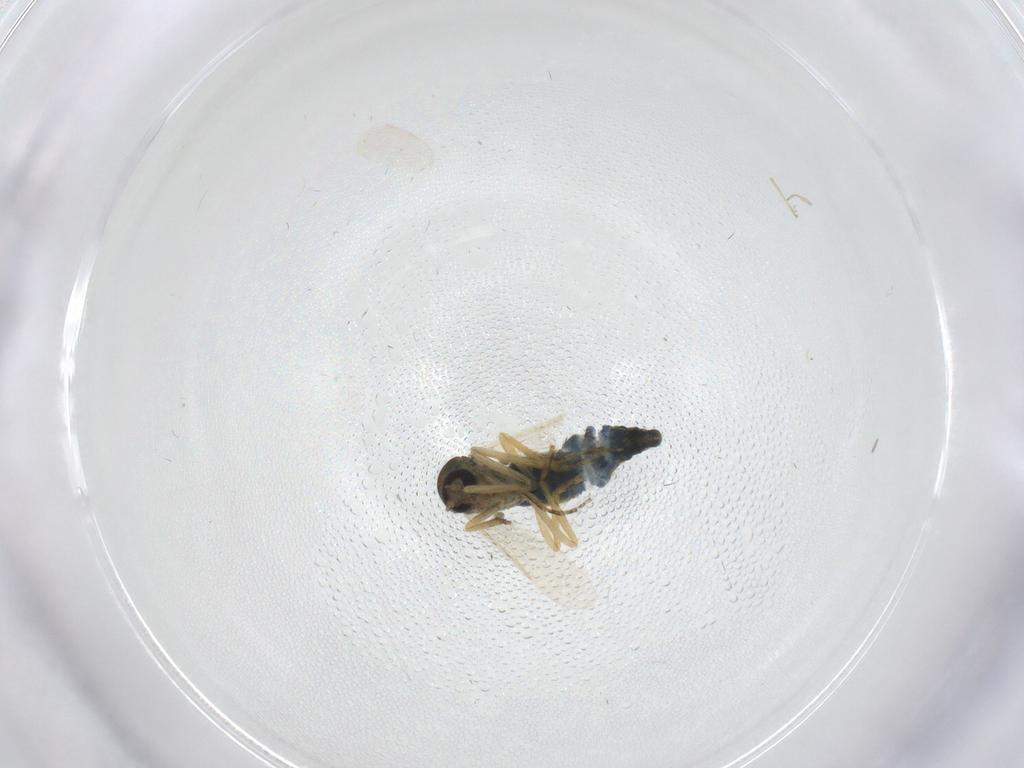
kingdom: Animalia
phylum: Arthropoda
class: Insecta
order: Diptera
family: Ceratopogonidae
